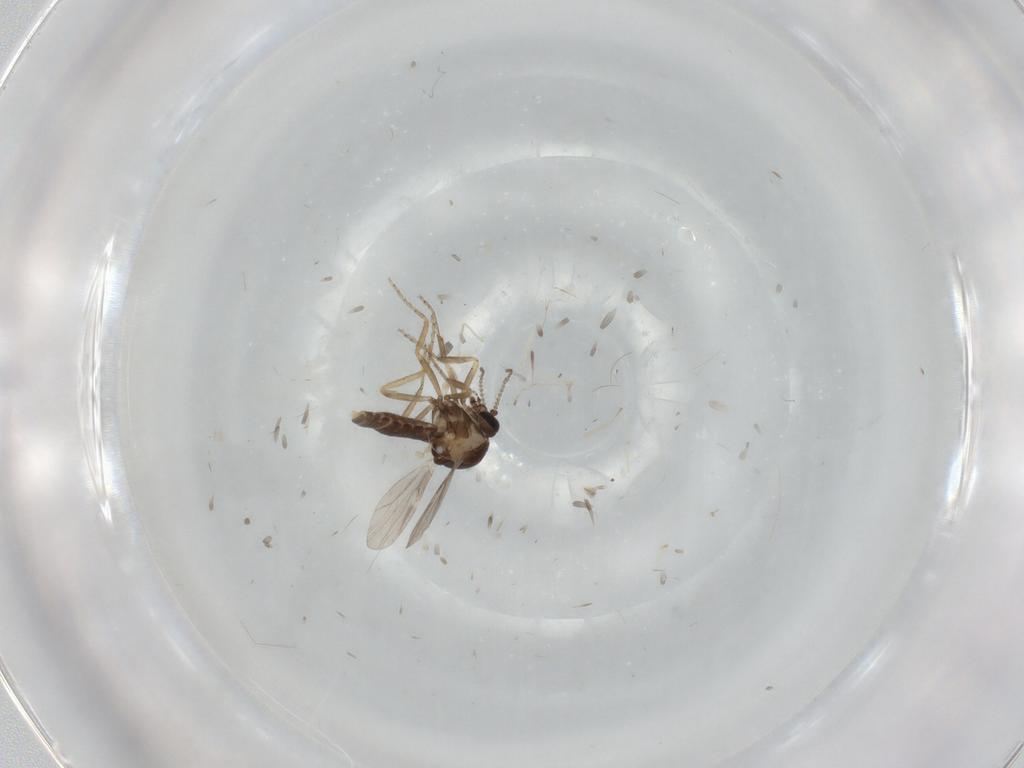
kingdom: Animalia
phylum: Arthropoda
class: Insecta
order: Diptera
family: Ceratopogonidae
